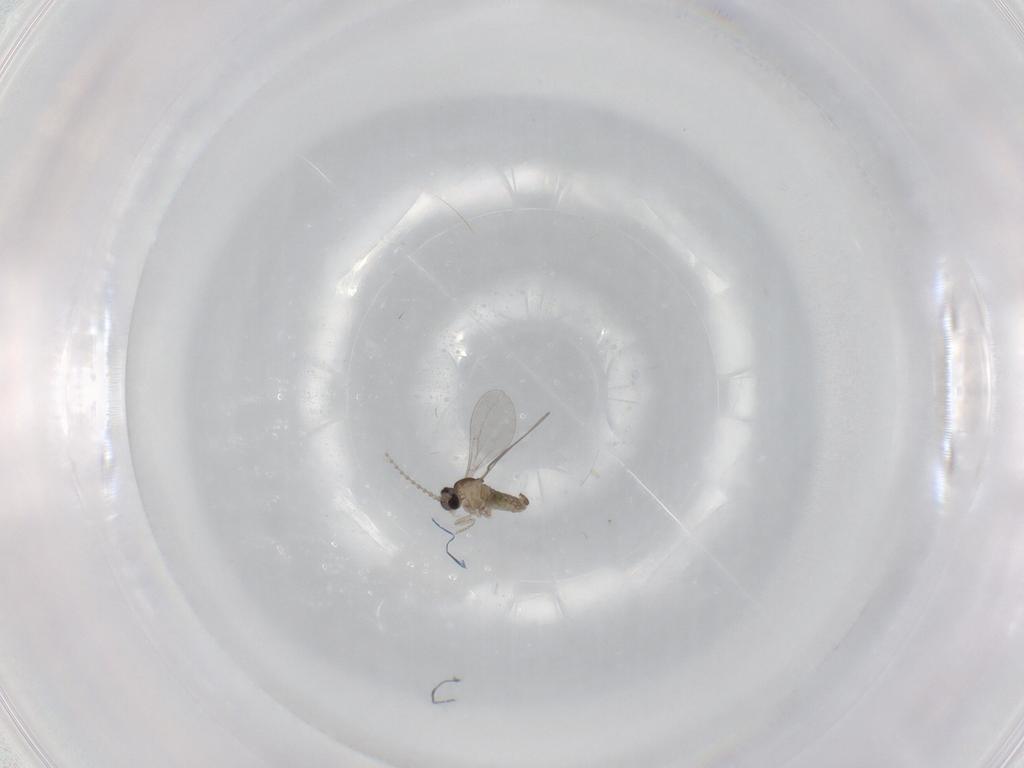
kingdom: Animalia
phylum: Arthropoda
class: Insecta
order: Diptera
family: Cecidomyiidae
